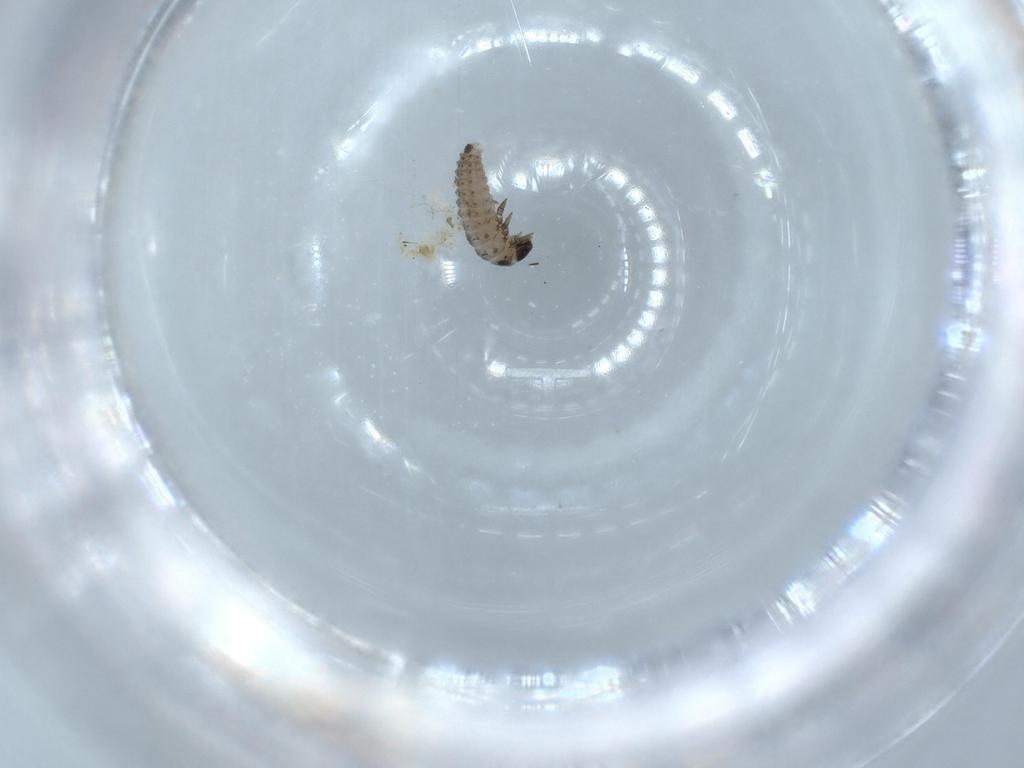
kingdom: Animalia
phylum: Arthropoda
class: Insecta
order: Coleoptera
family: Coccinellidae
